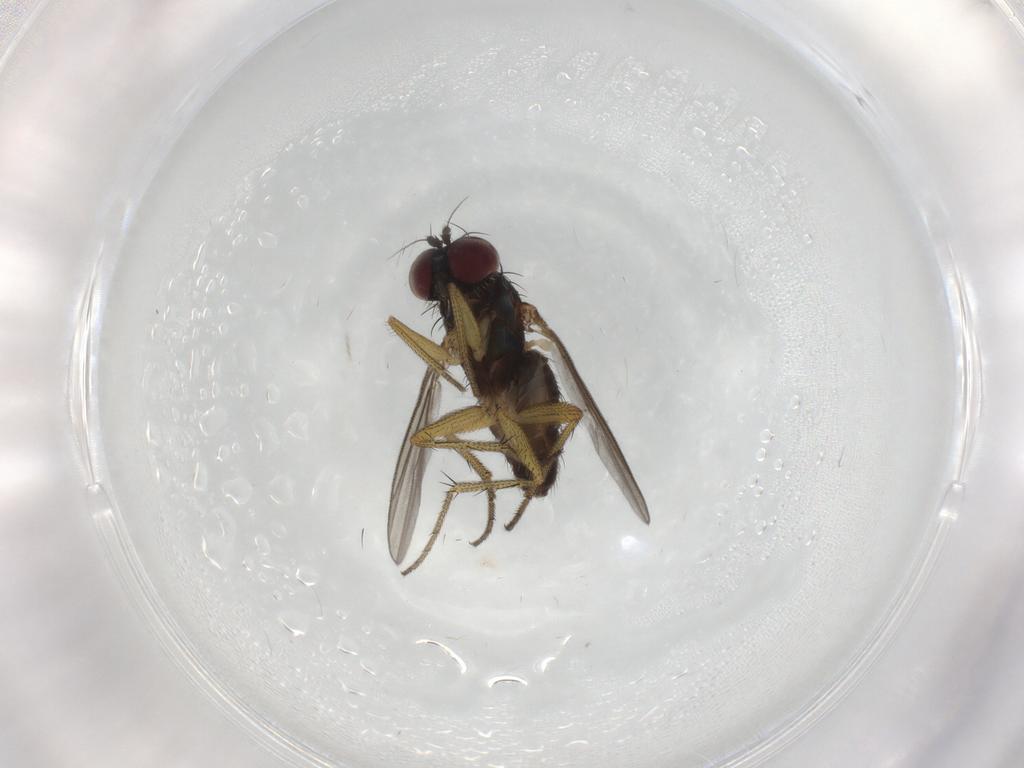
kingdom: Animalia
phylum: Arthropoda
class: Insecta
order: Diptera
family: Dolichopodidae
